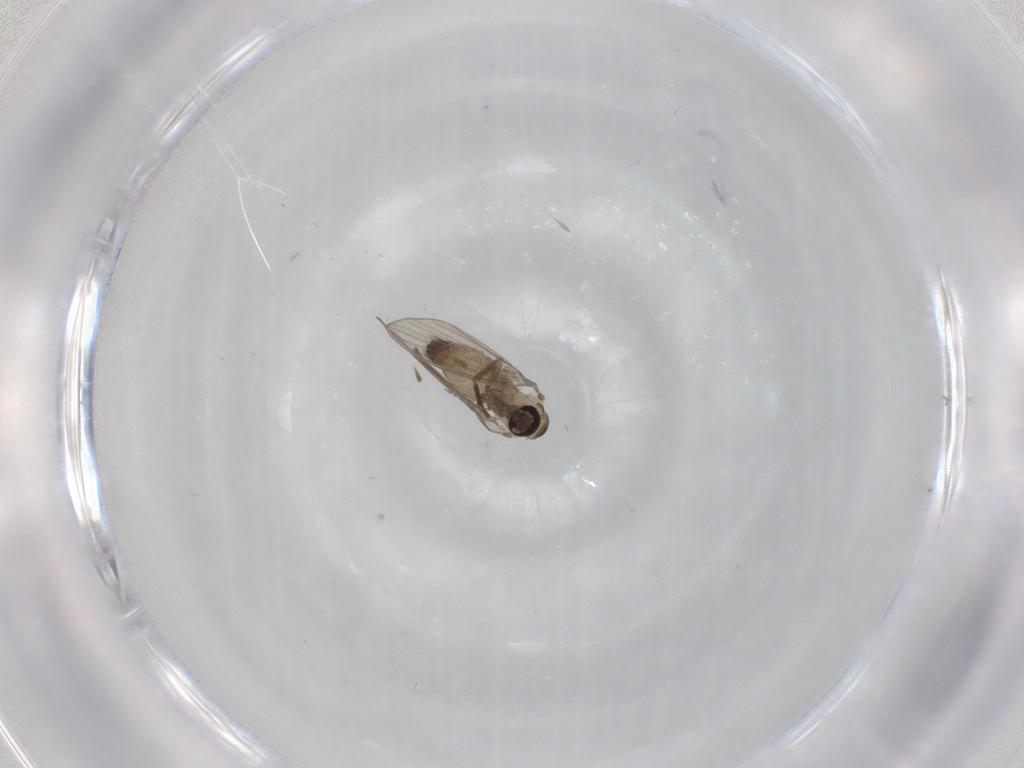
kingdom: Animalia
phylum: Arthropoda
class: Insecta
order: Diptera
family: Psychodidae
